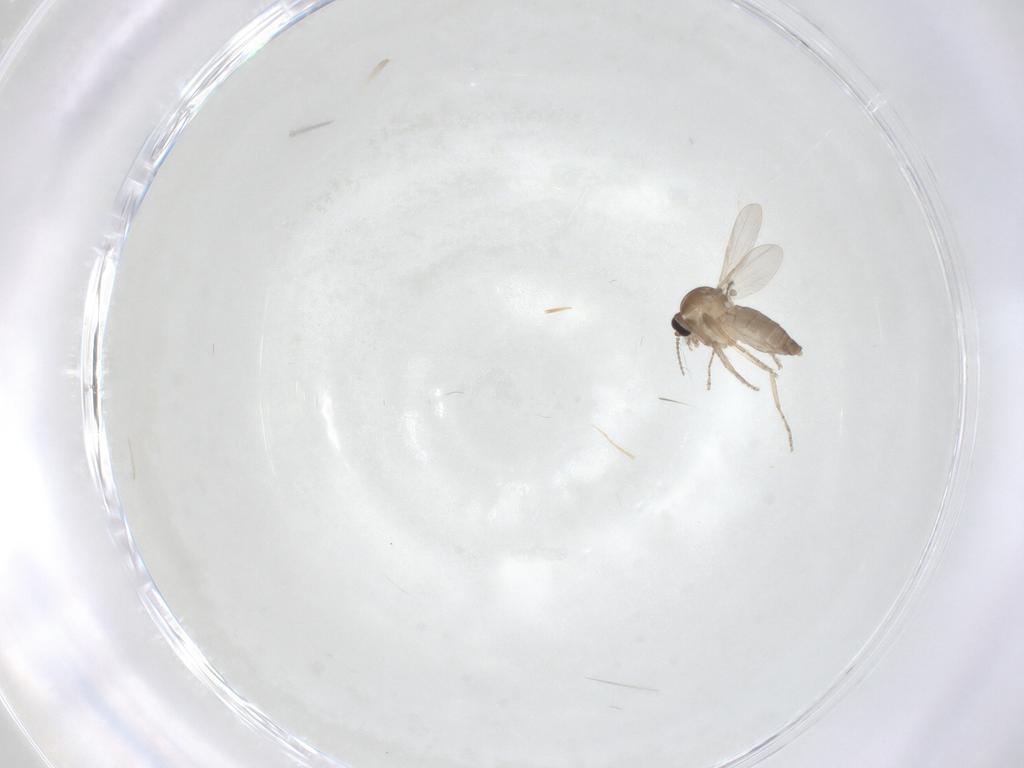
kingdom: Animalia
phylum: Arthropoda
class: Insecta
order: Diptera
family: Ceratopogonidae
